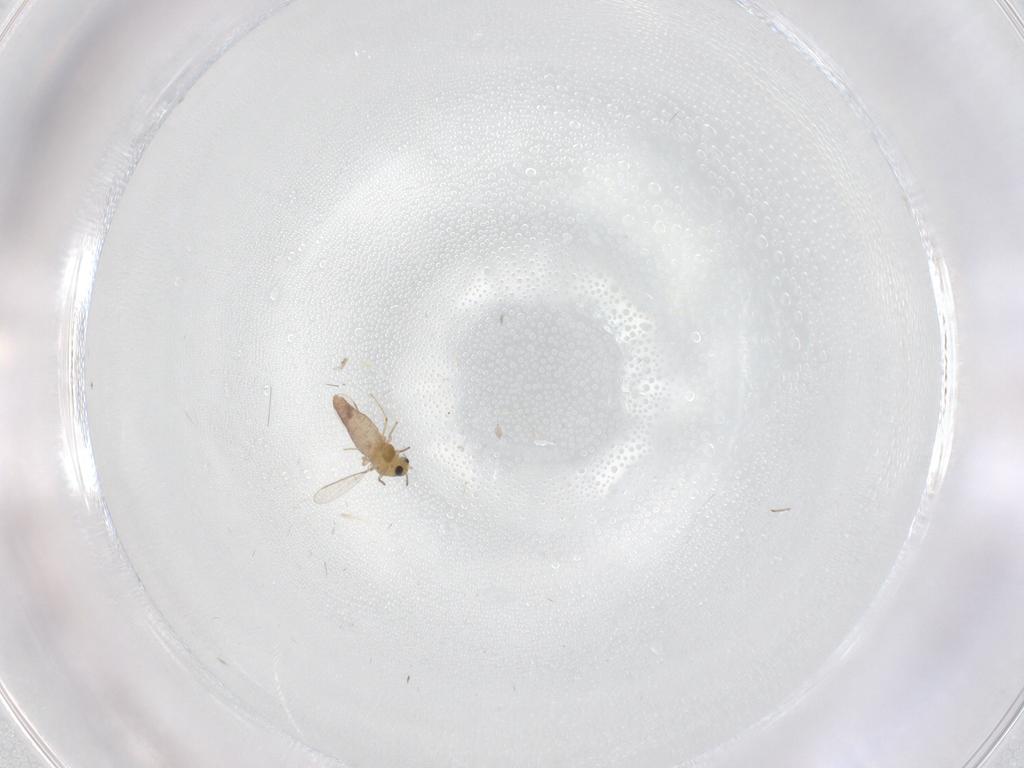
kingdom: Animalia
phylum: Arthropoda
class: Insecta
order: Diptera
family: Chironomidae
